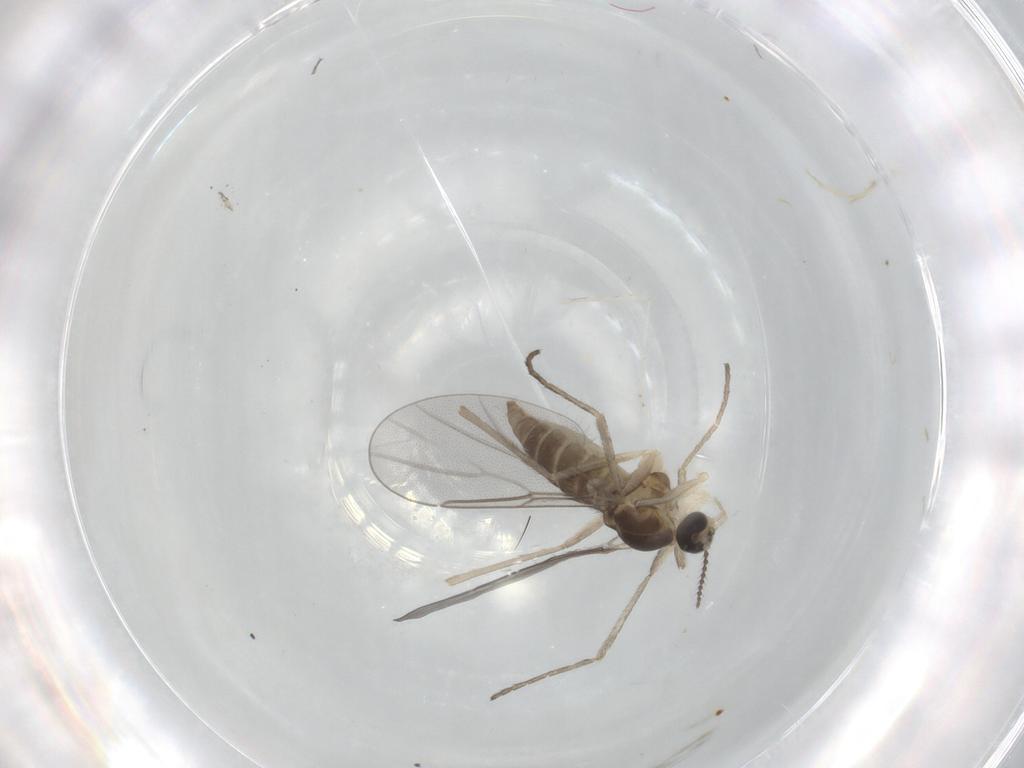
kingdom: Animalia
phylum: Arthropoda
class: Insecta
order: Diptera
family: Cecidomyiidae
